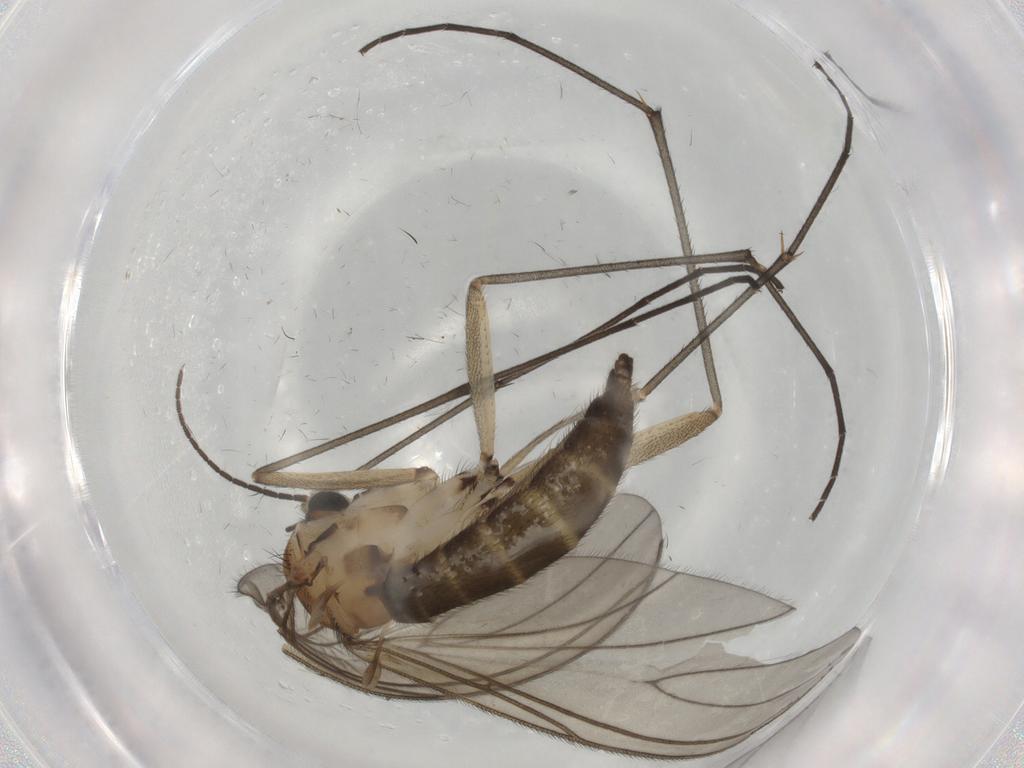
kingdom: Animalia
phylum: Arthropoda
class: Insecta
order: Diptera
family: Sciaridae
